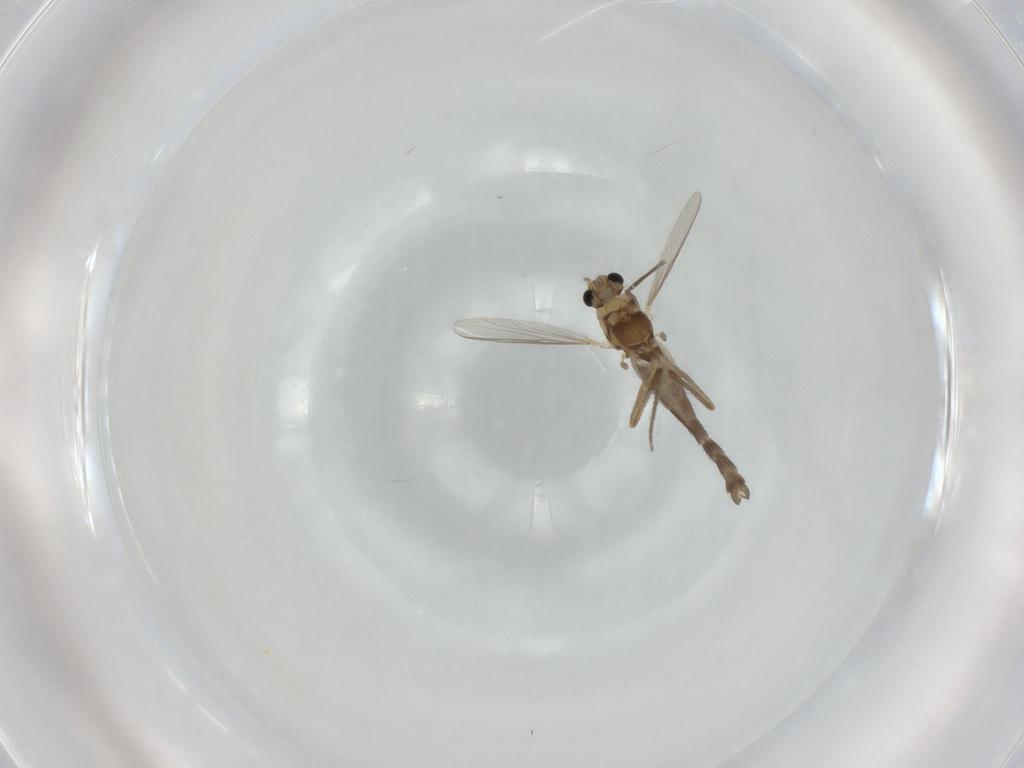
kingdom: Animalia
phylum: Arthropoda
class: Insecta
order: Diptera
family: Chironomidae
